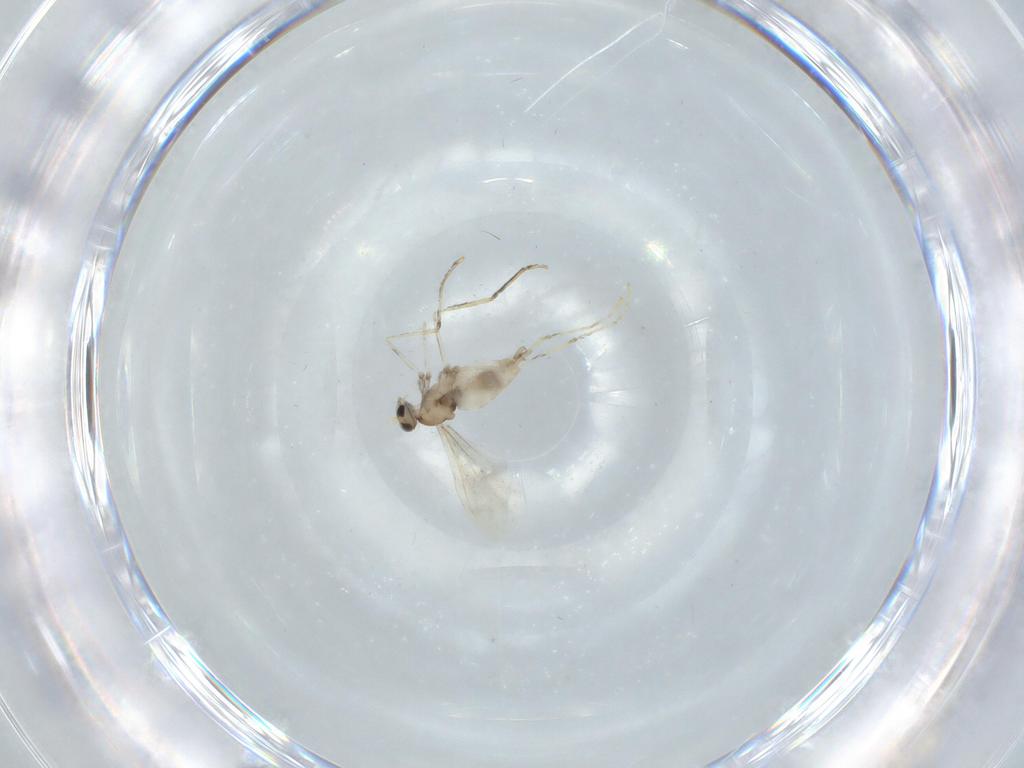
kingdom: Animalia
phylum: Arthropoda
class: Insecta
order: Diptera
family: Cecidomyiidae
